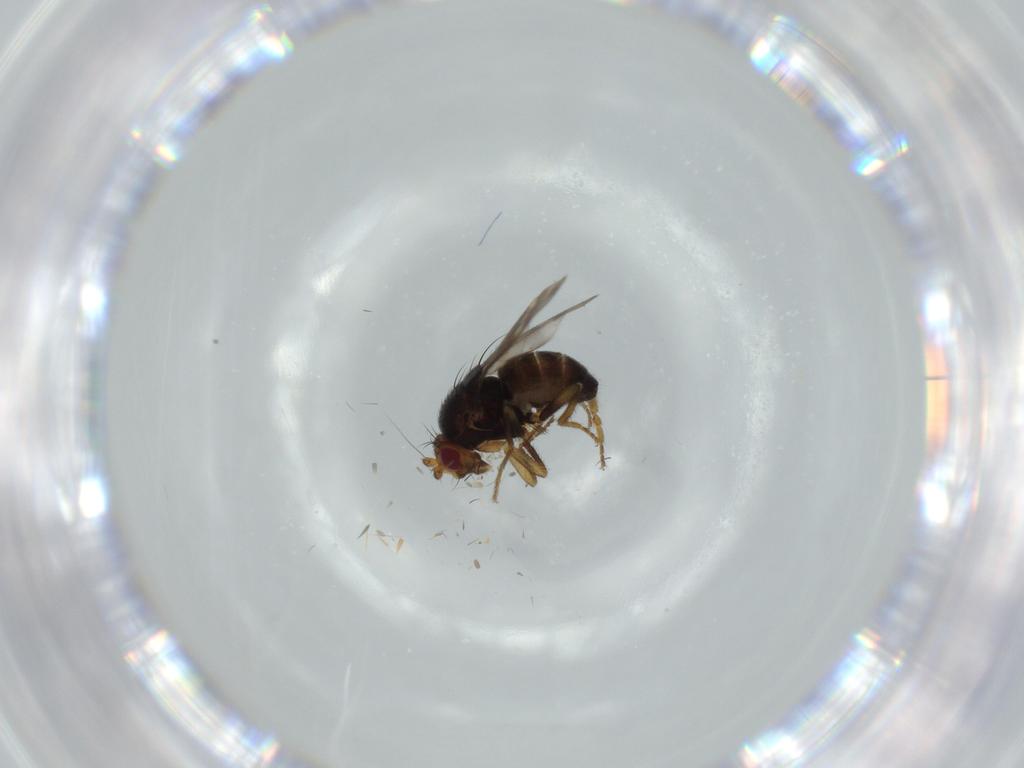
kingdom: Animalia
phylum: Arthropoda
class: Insecta
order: Diptera
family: Sphaeroceridae
